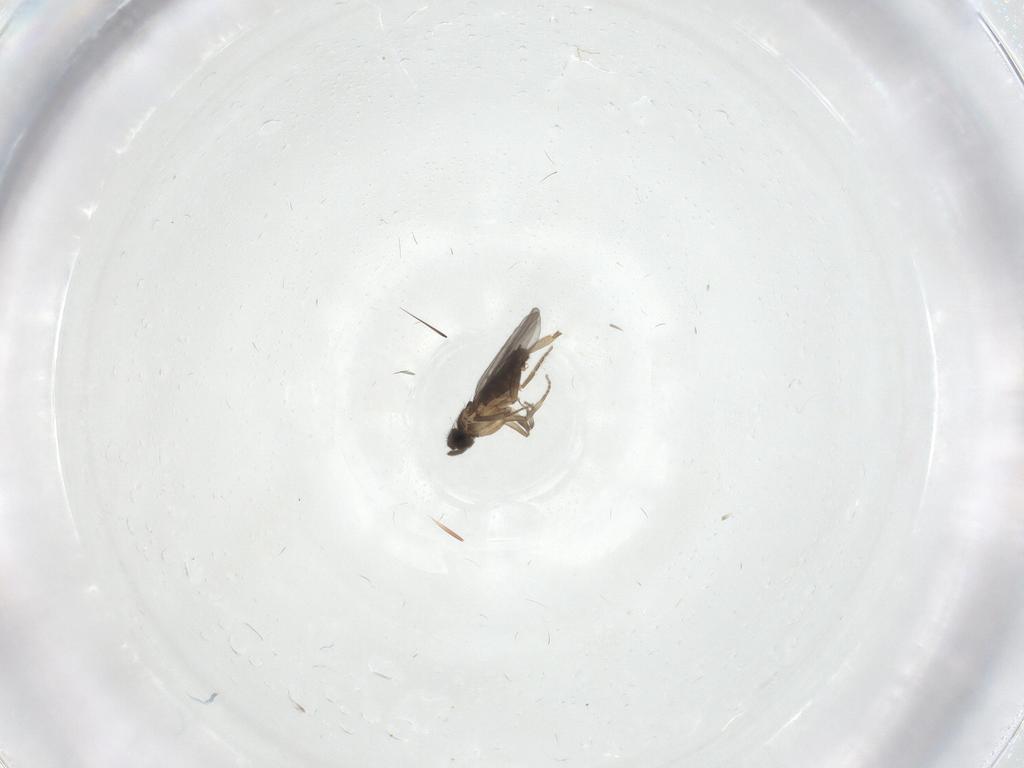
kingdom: Animalia
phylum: Arthropoda
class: Insecta
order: Diptera
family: Cecidomyiidae
